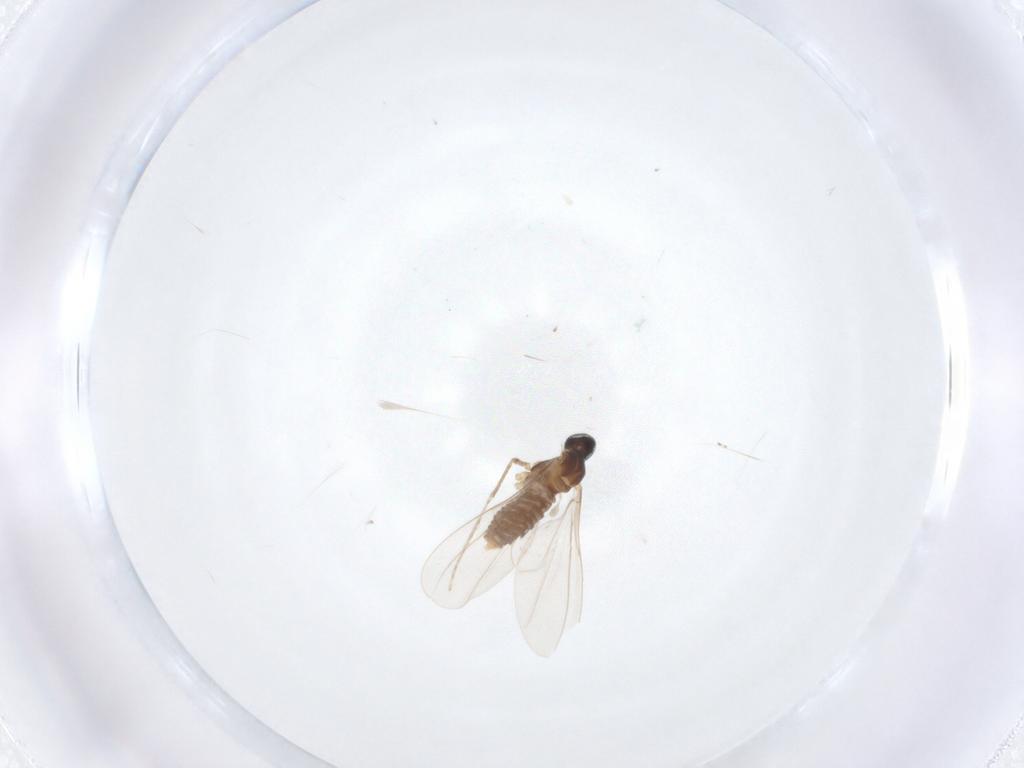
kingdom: Animalia
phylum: Arthropoda
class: Insecta
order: Diptera
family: Cecidomyiidae
